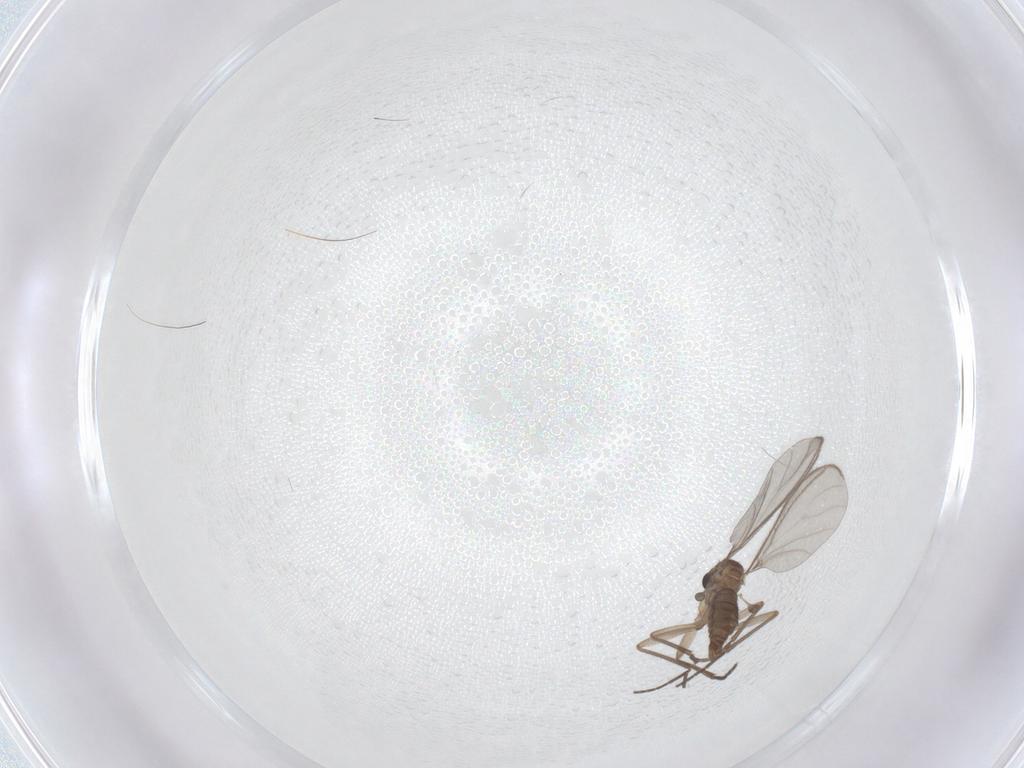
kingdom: Animalia
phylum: Arthropoda
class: Insecta
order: Diptera
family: Sciaridae
